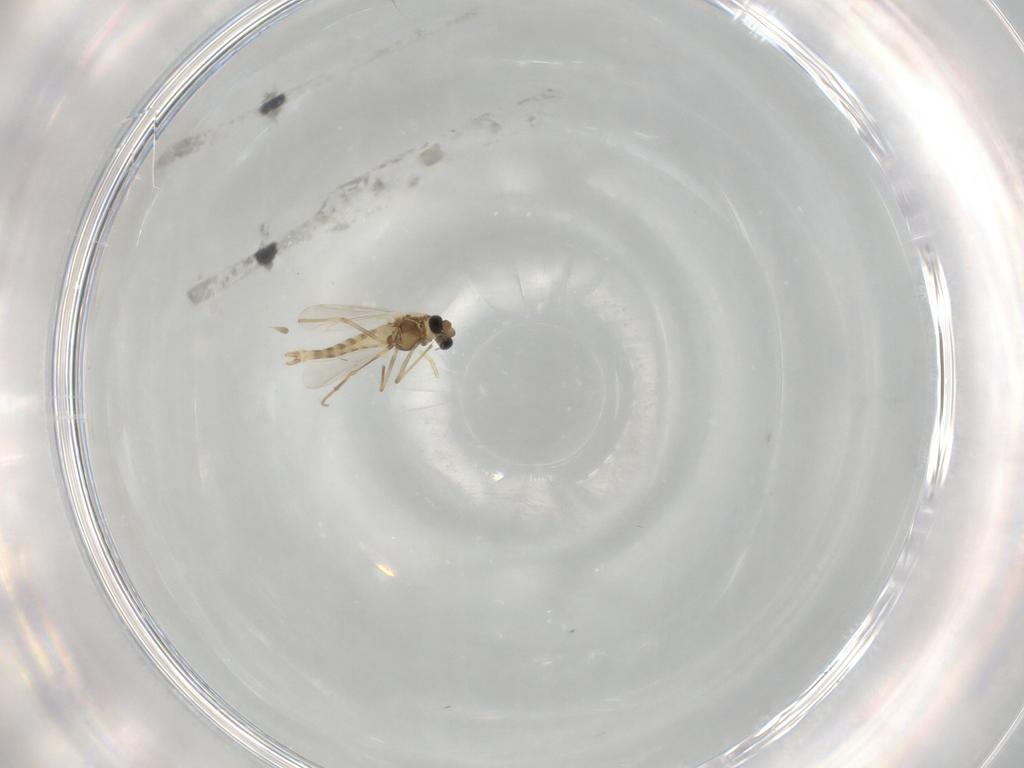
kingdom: Animalia
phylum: Arthropoda
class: Insecta
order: Diptera
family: Chironomidae
